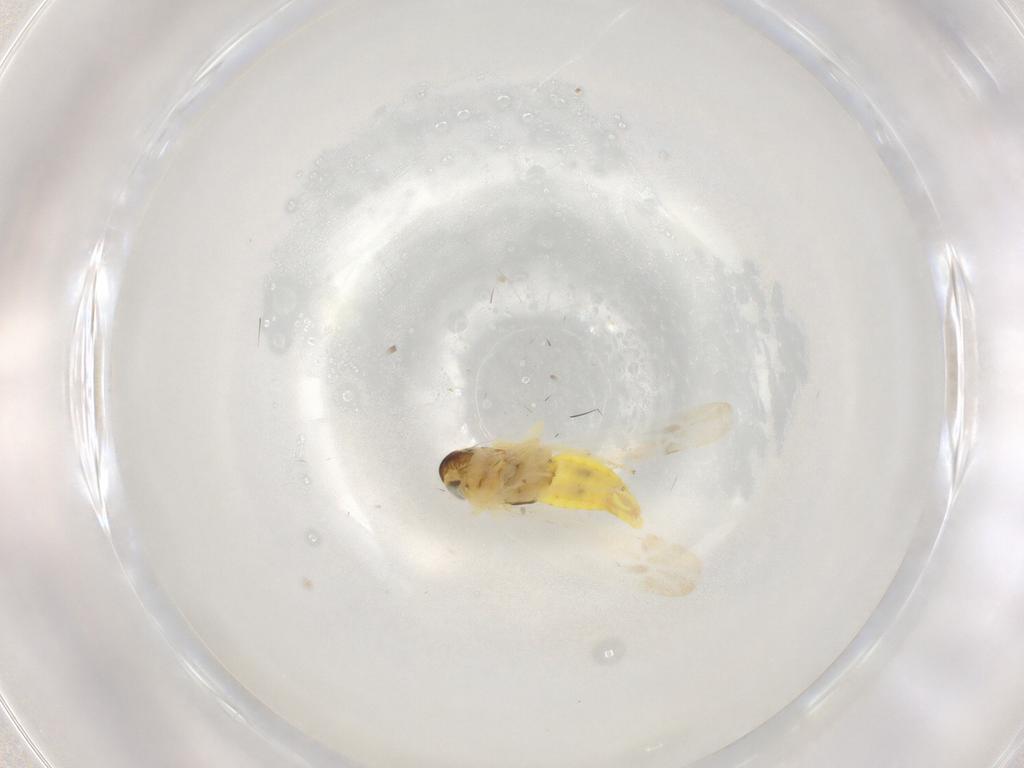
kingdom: Animalia
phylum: Arthropoda
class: Insecta
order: Hemiptera
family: Cicadellidae
